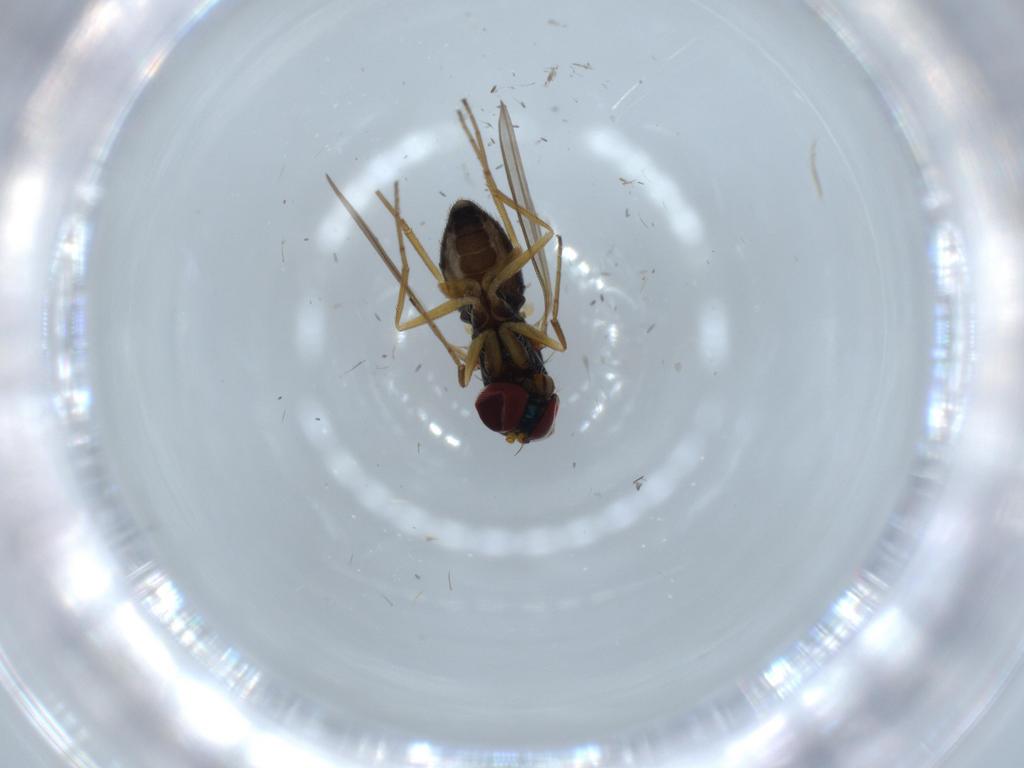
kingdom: Animalia
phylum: Arthropoda
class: Insecta
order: Diptera
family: Dolichopodidae
